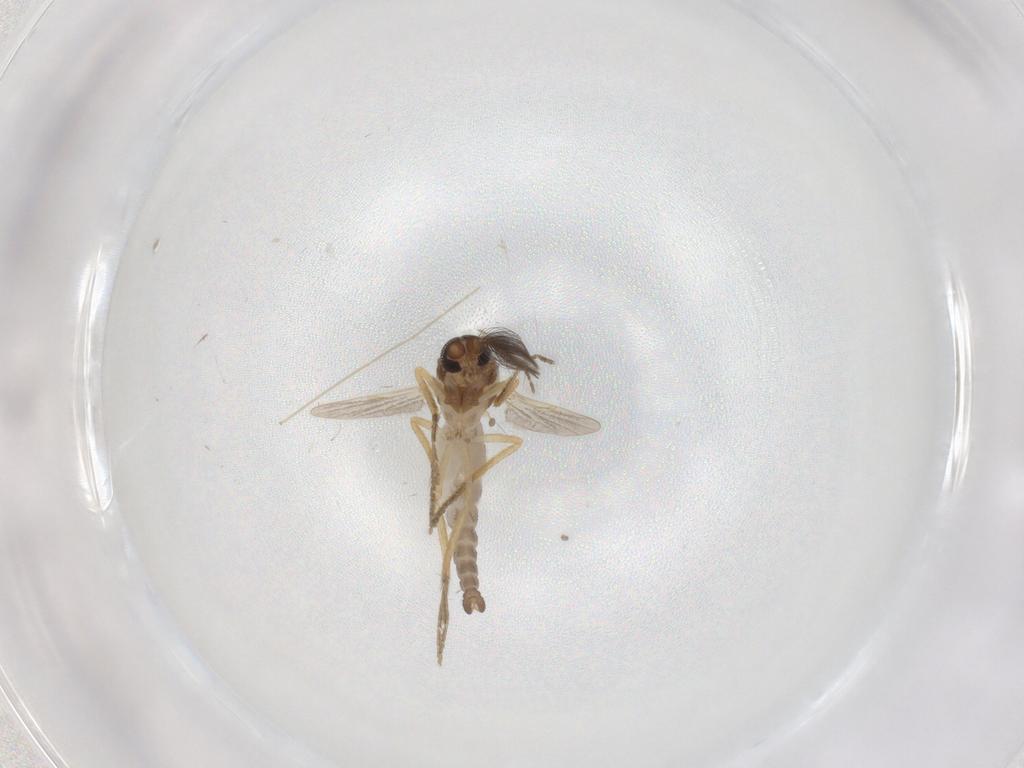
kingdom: Animalia
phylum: Arthropoda
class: Insecta
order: Diptera
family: Ceratopogonidae
